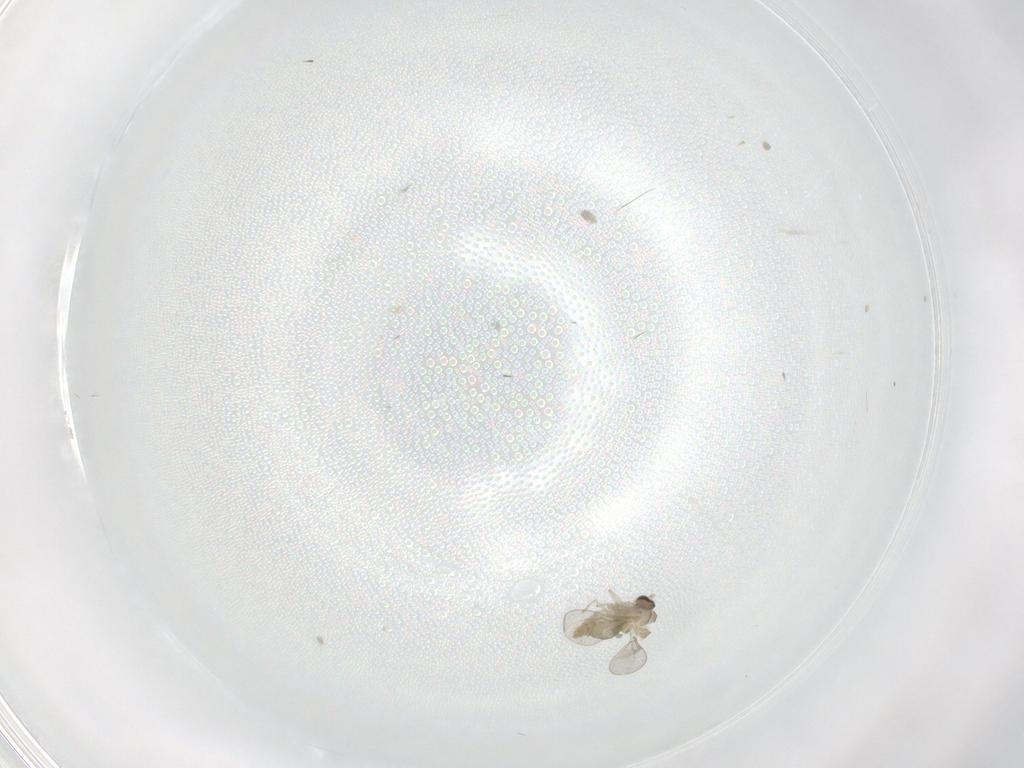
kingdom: Animalia
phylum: Arthropoda
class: Insecta
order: Diptera
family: Cecidomyiidae
